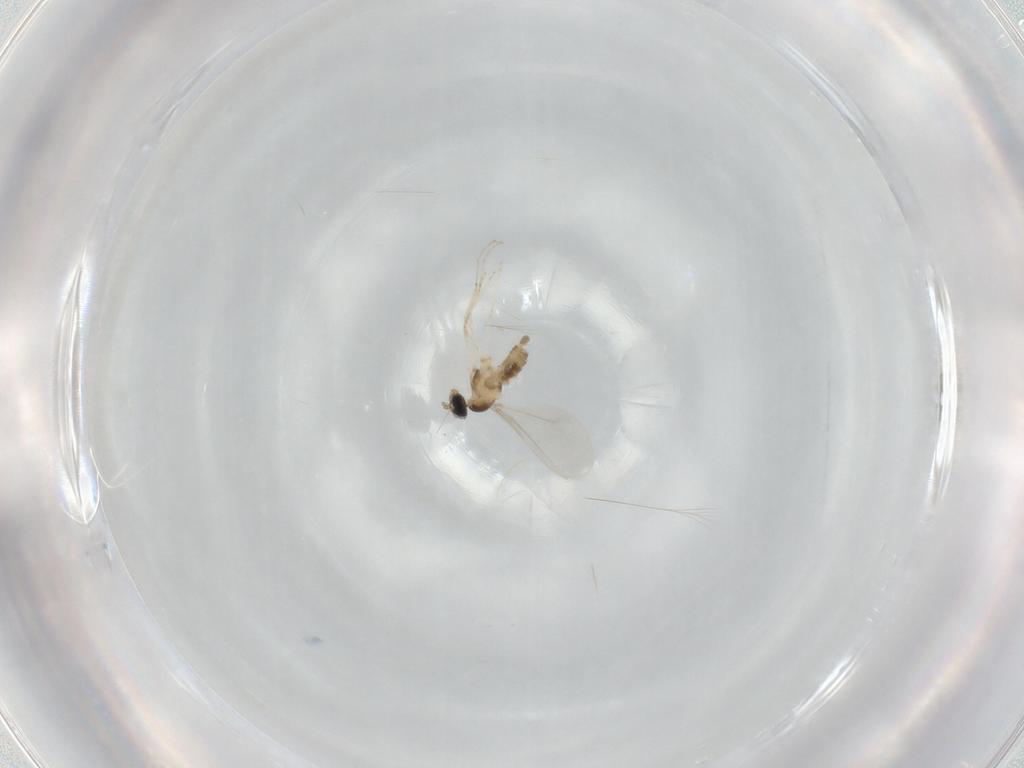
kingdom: Animalia
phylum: Arthropoda
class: Insecta
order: Diptera
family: Cecidomyiidae
